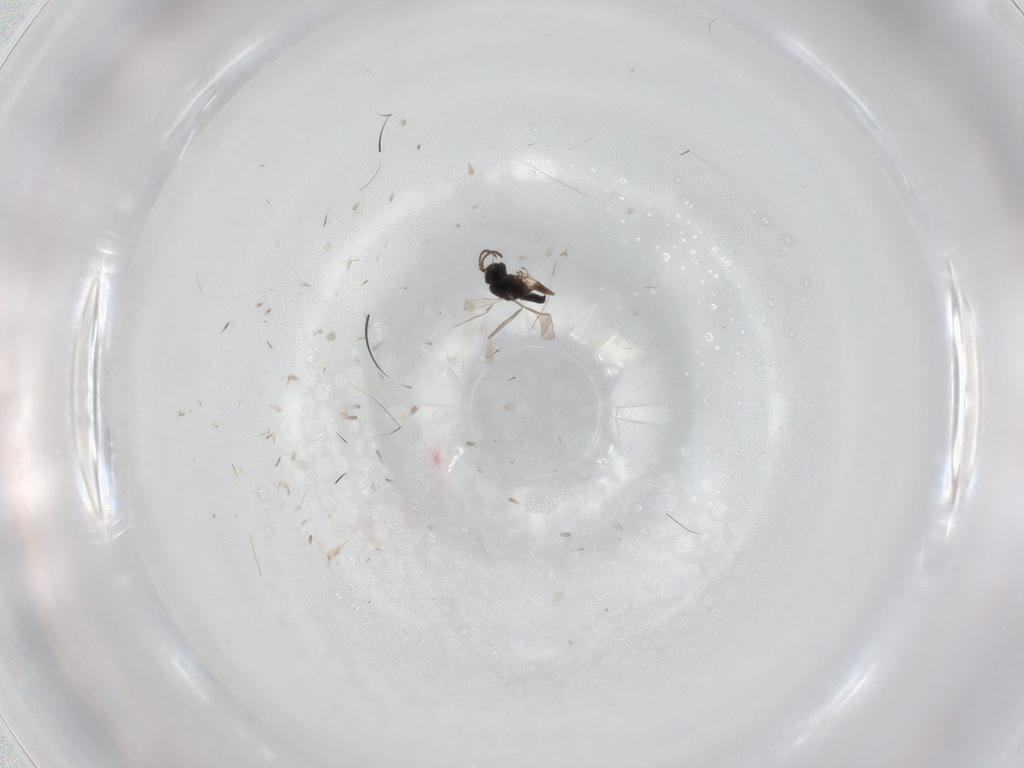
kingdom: Animalia
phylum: Arthropoda
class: Insecta
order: Hymenoptera
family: Scelionidae
